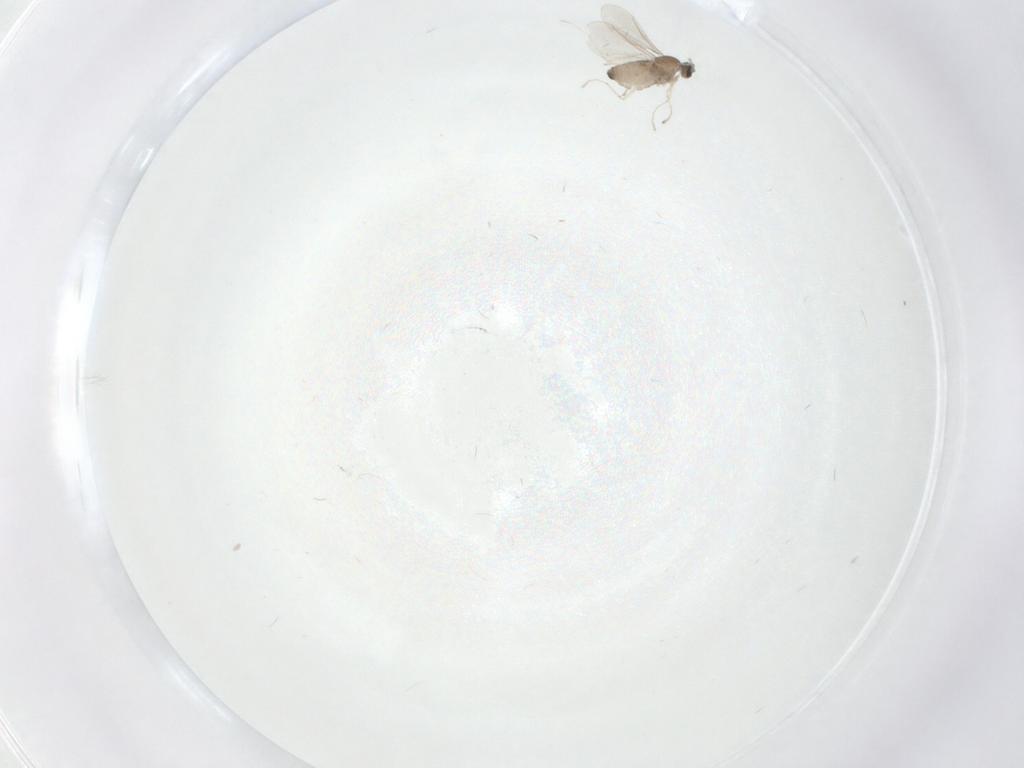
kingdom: Animalia
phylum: Arthropoda
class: Insecta
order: Diptera
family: Cecidomyiidae
